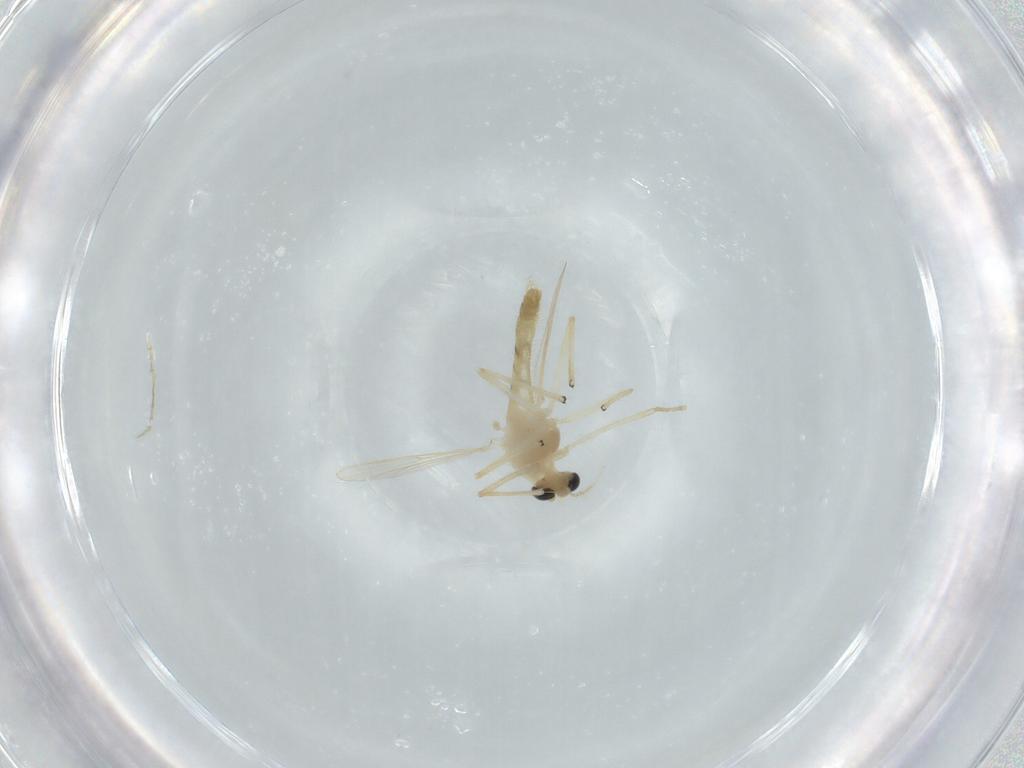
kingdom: Animalia
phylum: Arthropoda
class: Insecta
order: Diptera
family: Chironomidae
